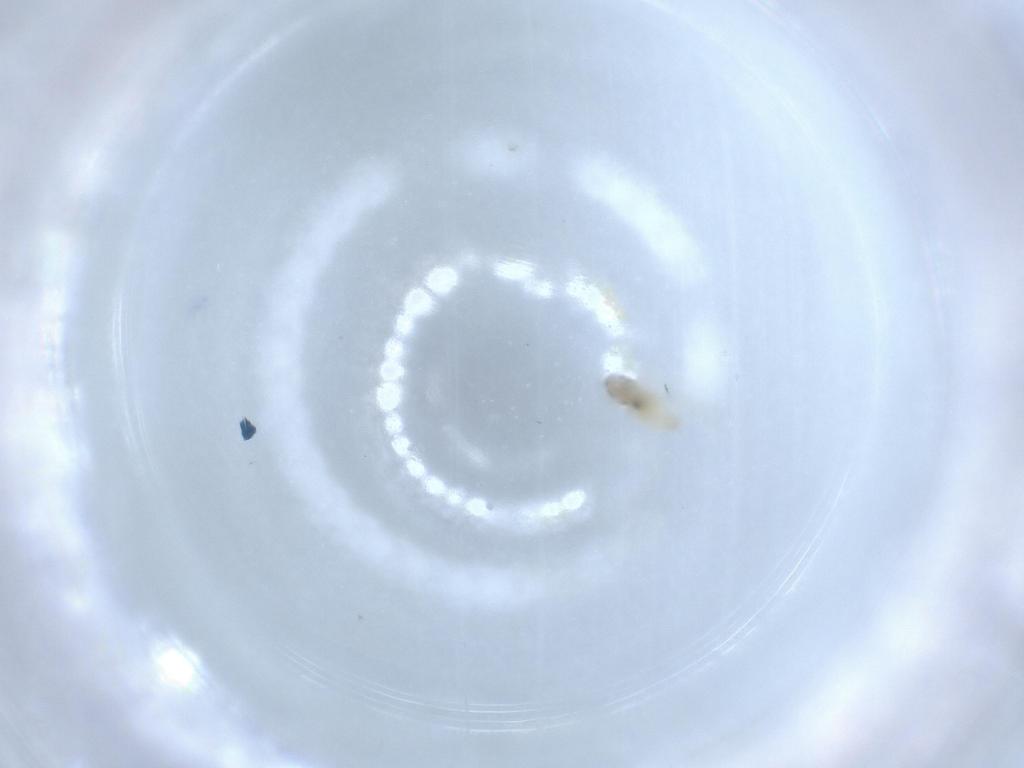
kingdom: Animalia
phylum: Arthropoda
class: Insecta
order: Diptera
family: Cecidomyiidae
